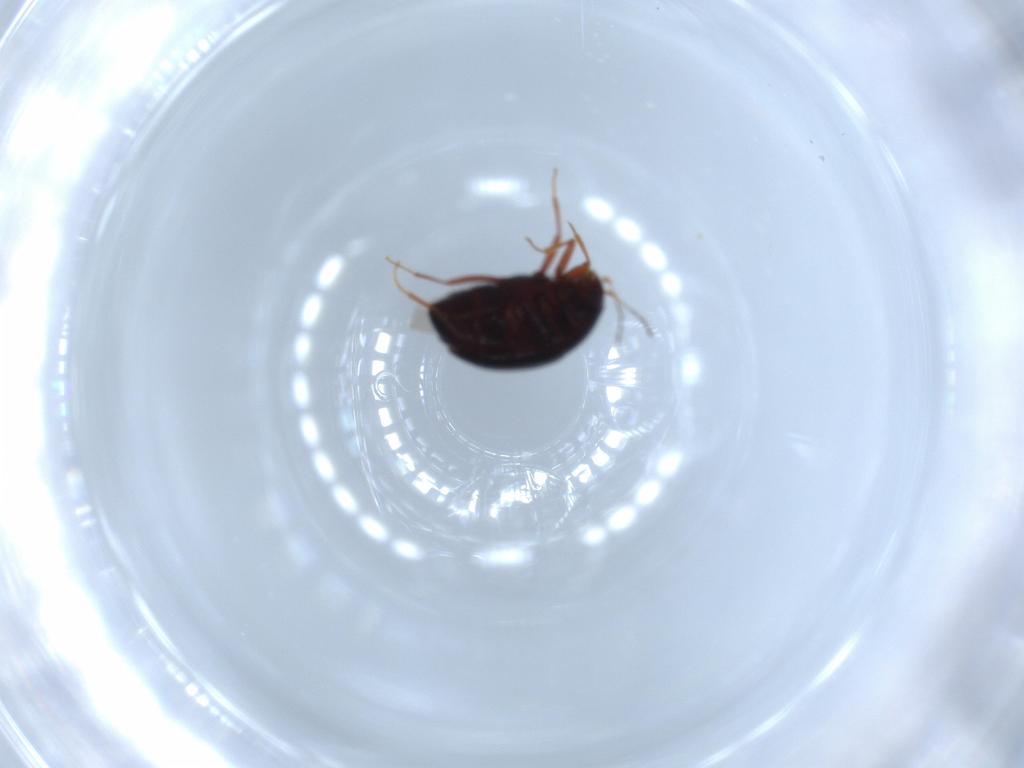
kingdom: Animalia
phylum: Arthropoda
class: Insecta
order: Coleoptera
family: Staphylinidae
